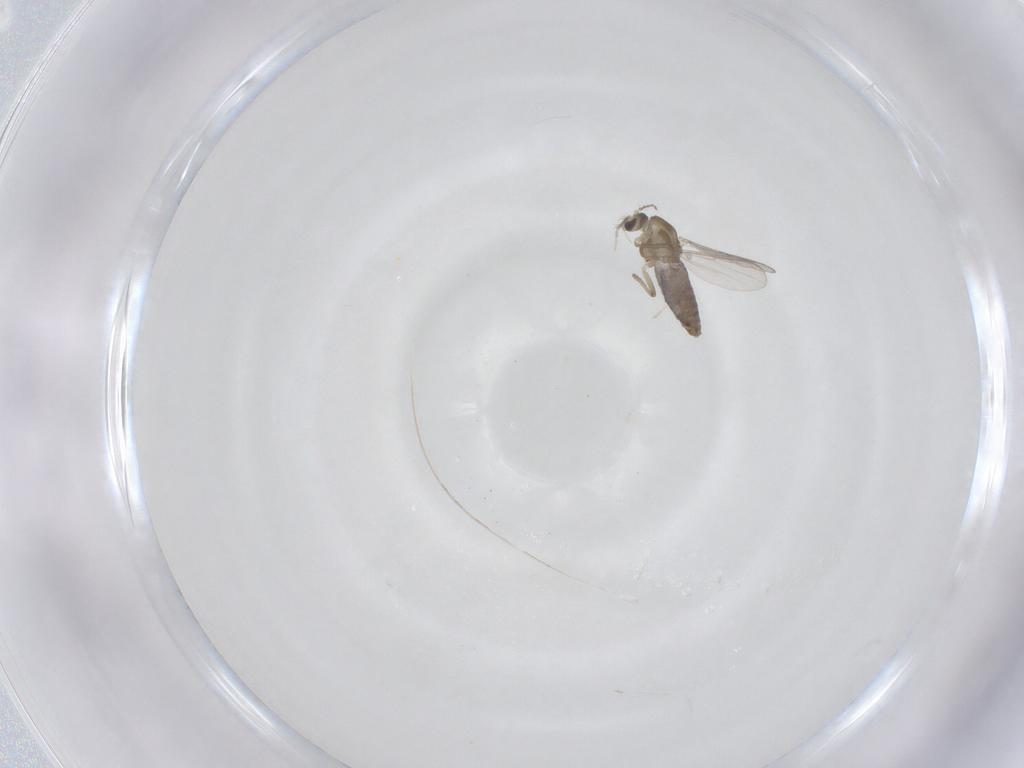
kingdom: Animalia
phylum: Arthropoda
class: Insecta
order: Diptera
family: Chironomidae
